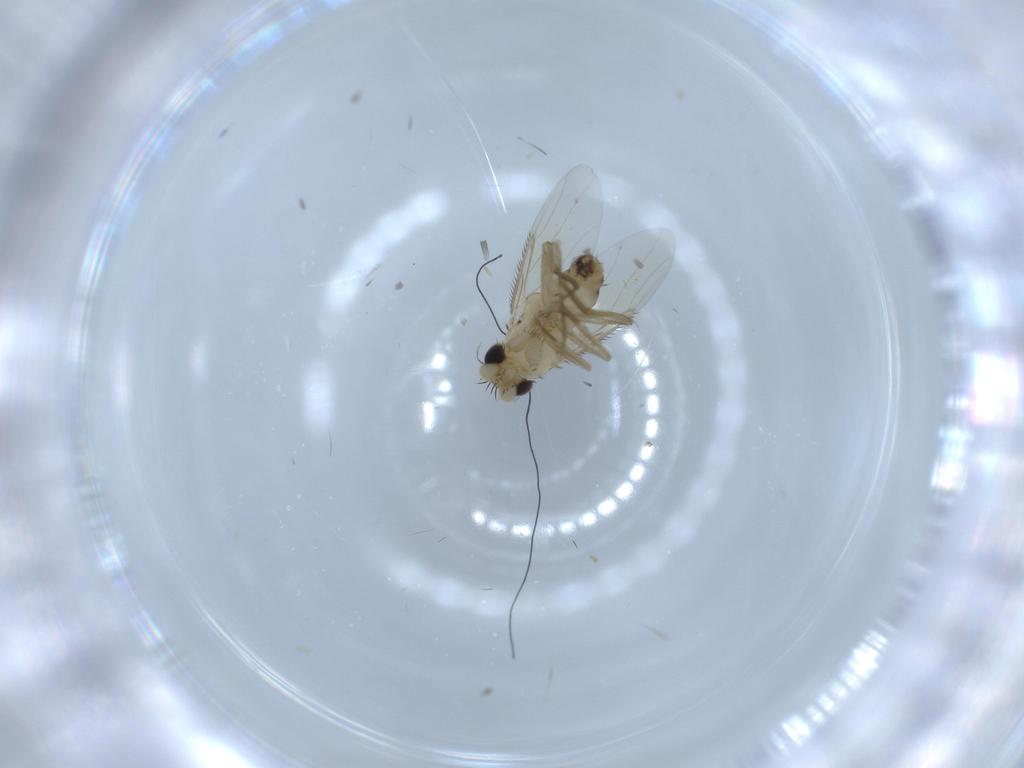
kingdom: Animalia
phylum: Arthropoda
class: Insecta
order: Diptera
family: Phoridae
